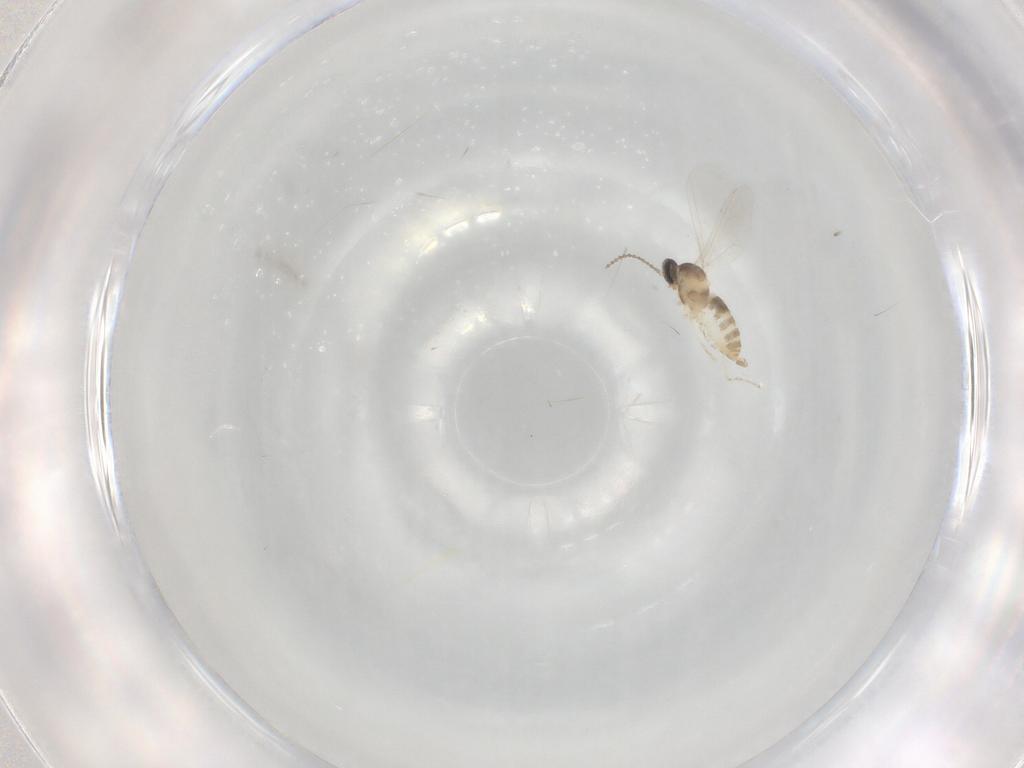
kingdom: Animalia
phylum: Arthropoda
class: Insecta
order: Diptera
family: Cecidomyiidae
